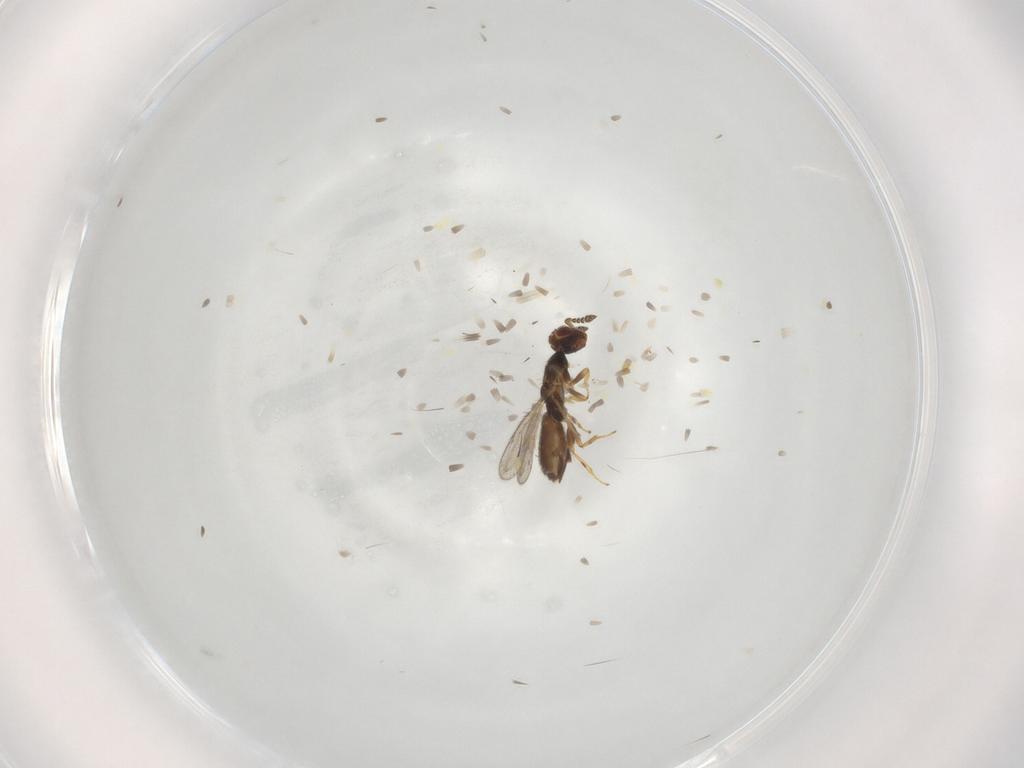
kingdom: Animalia
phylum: Arthropoda
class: Insecta
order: Hymenoptera
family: Eulophidae
